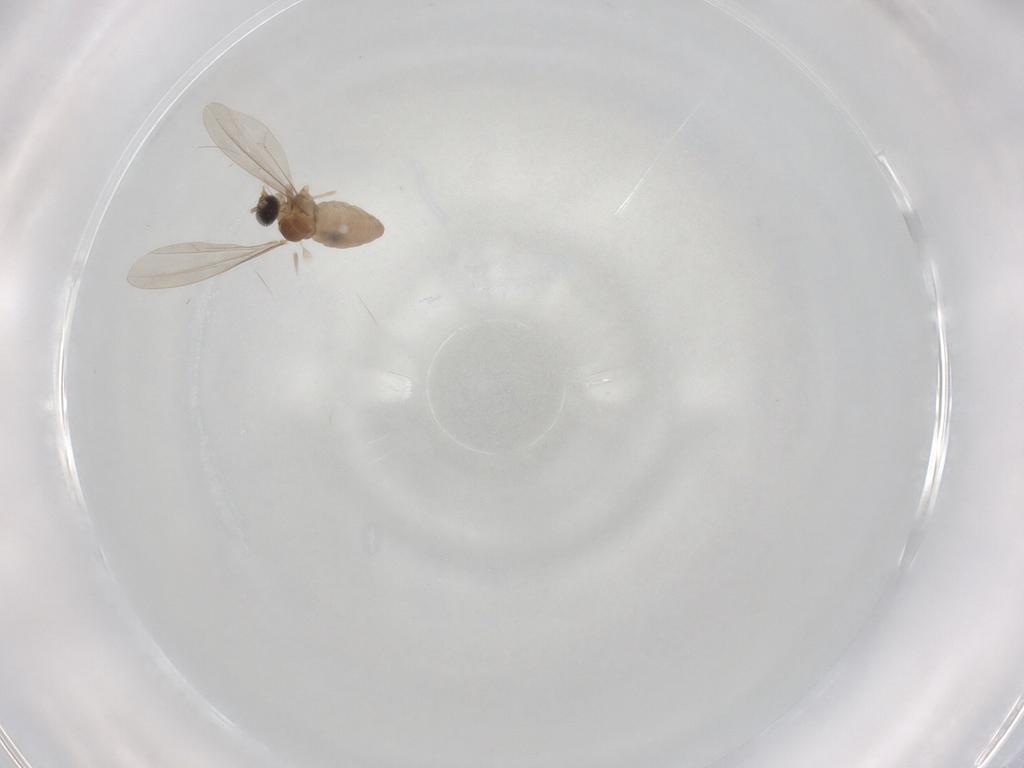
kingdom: Animalia
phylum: Arthropoda
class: Insecta
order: Diptera
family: Cecidomyiidae
